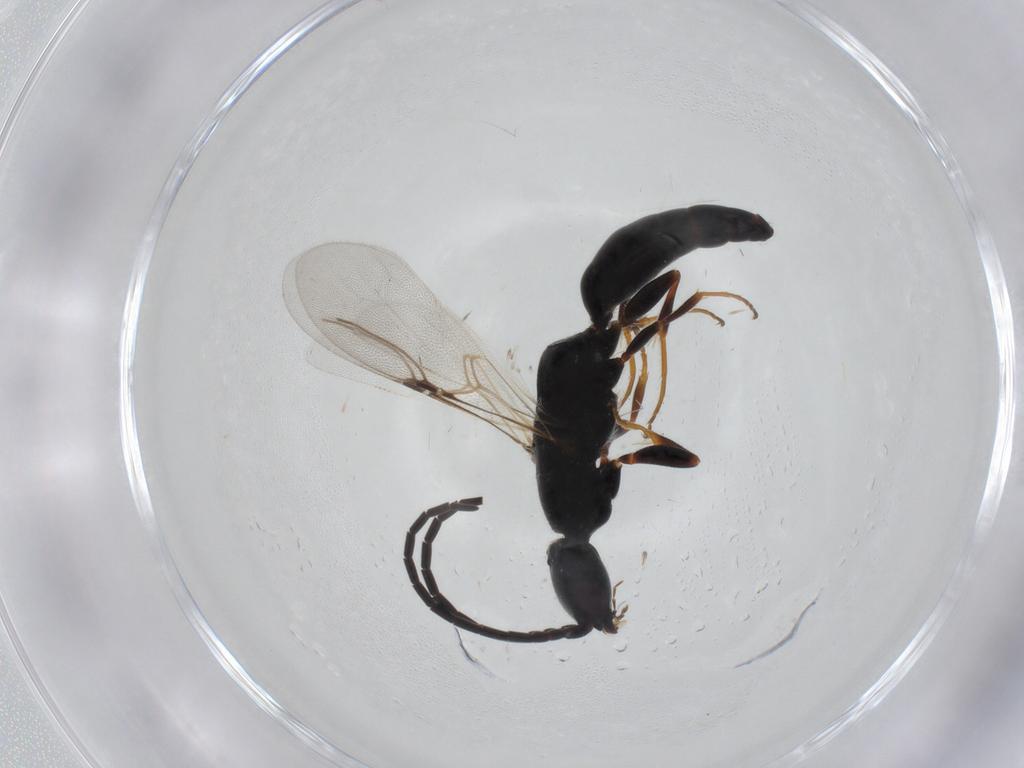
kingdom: Animalia
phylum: Arthropoda
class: Insecta
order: Hymenoptera
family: Bethylidae
